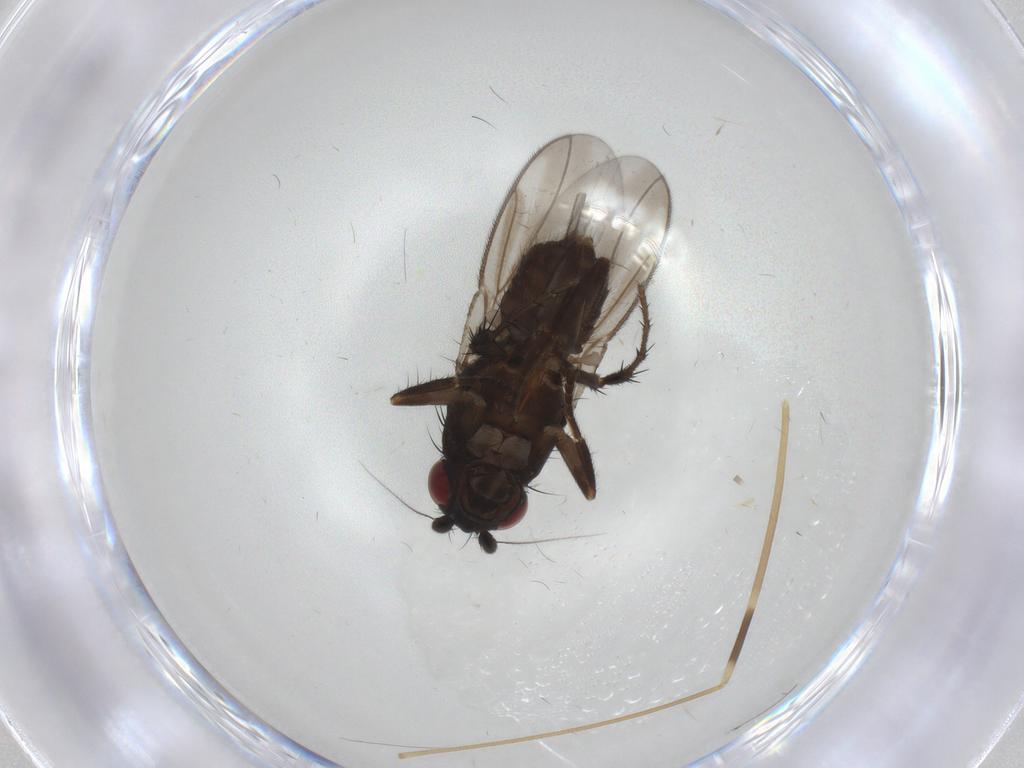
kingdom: Animalia
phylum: Arthropoda
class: Insecta
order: Diptera
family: Sphaeroceridae
